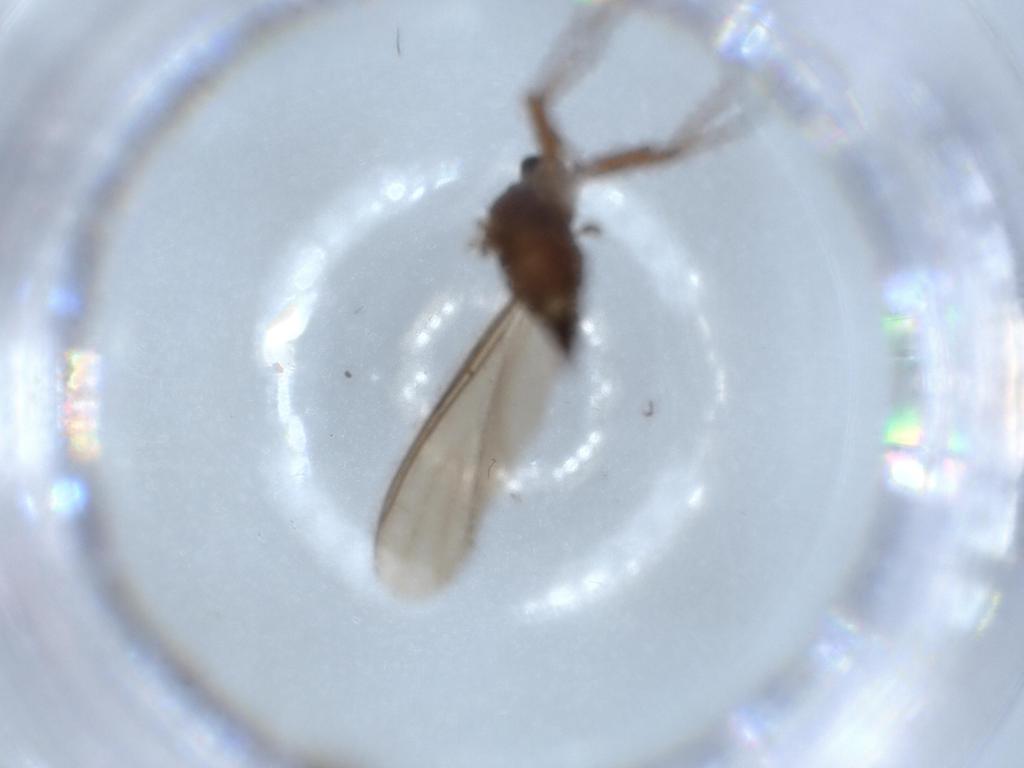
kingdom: Animalia
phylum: Arthropoda
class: Insecta
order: Diptera
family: Sciaridae
